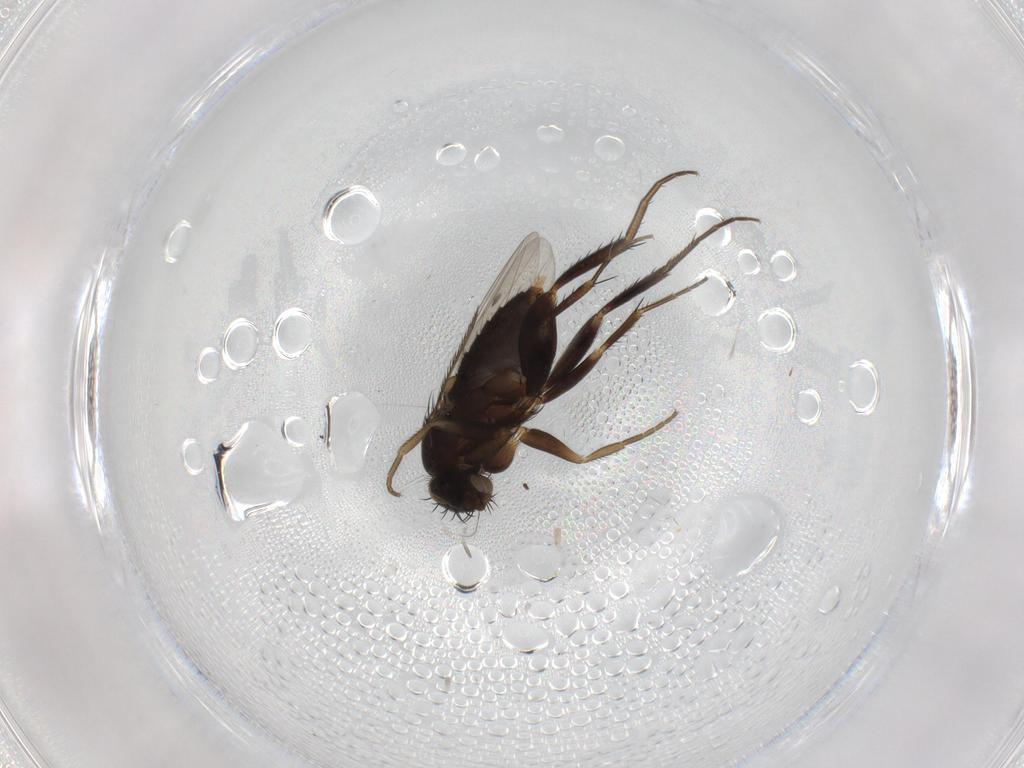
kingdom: Animalia
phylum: Arthropoda
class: Insecta
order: Diptera
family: Phoridae
